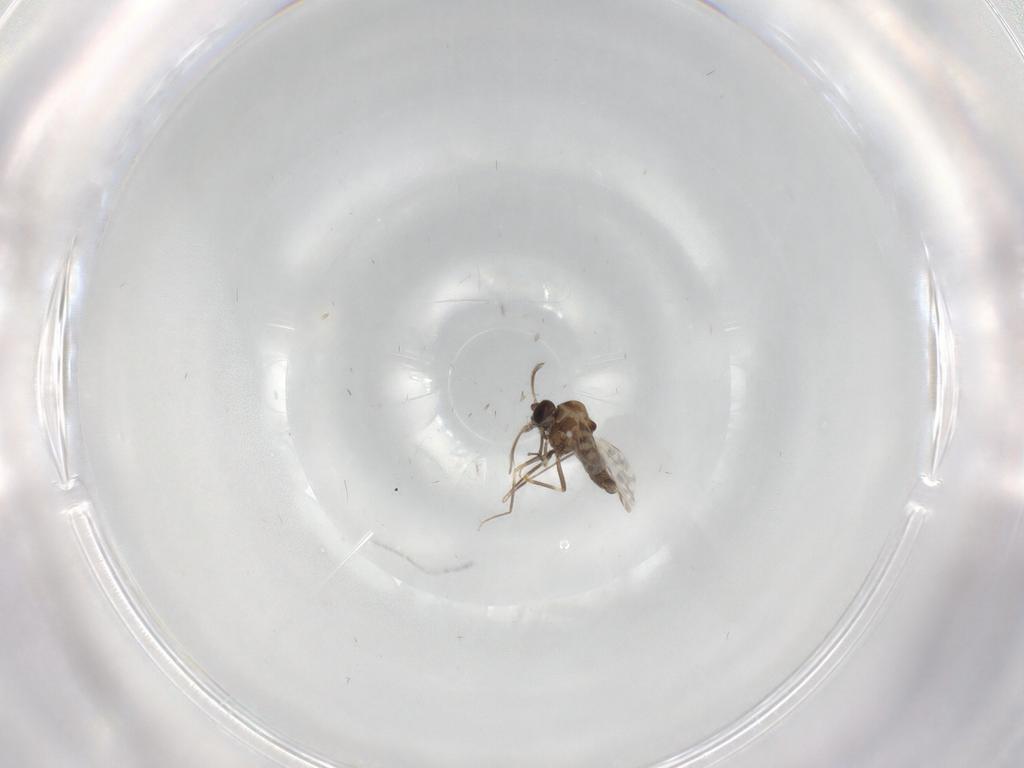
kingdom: Animalia
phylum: Arthropoda
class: Insecta
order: Diptera
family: Ceratopogonidae
